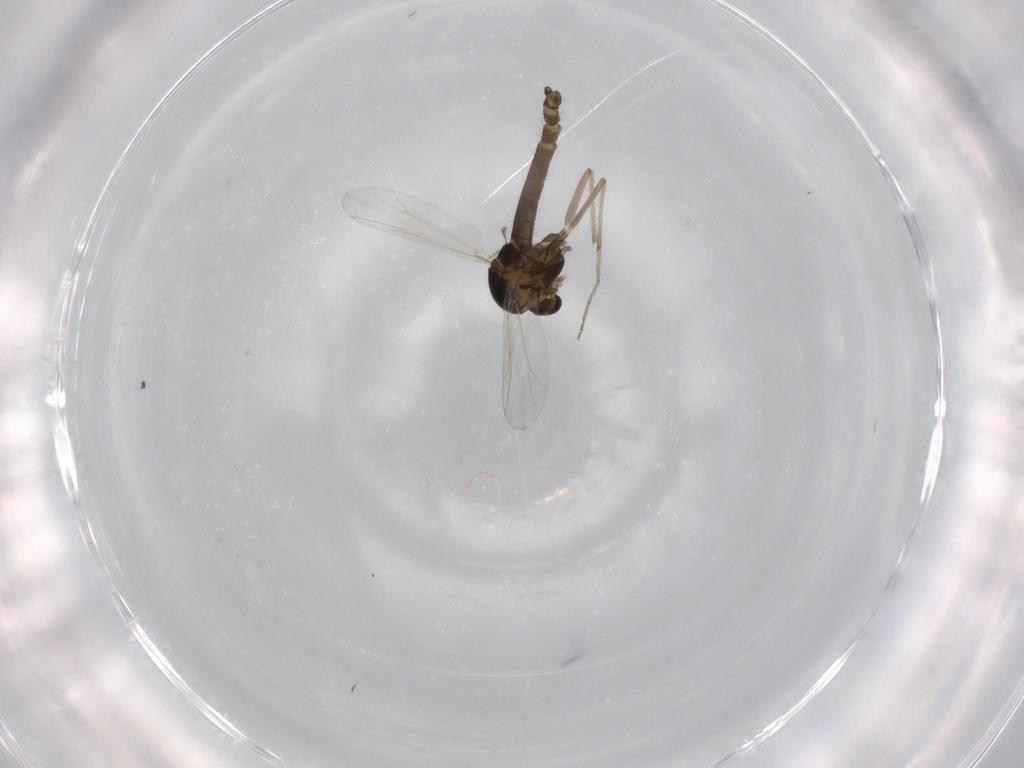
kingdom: Animalia
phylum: Arthropoda
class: Insecta
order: Diptera
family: Chironomidae
